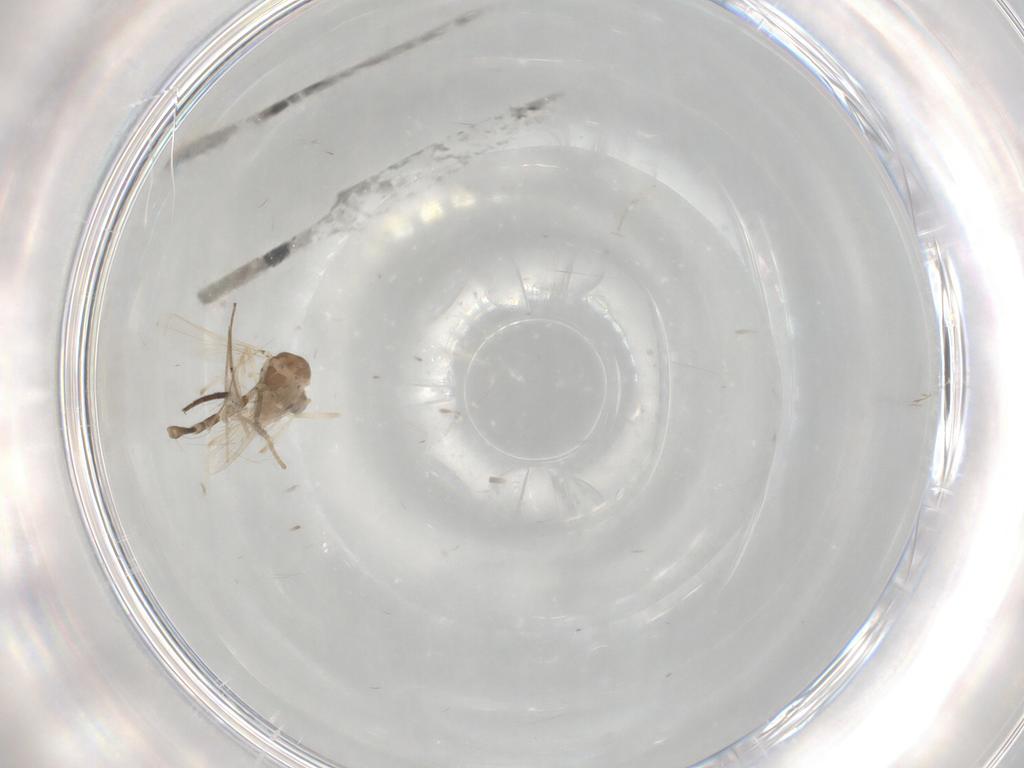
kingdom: Animalia
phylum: Arthropoda
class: Insecta
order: Diptera
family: Chironomidae
